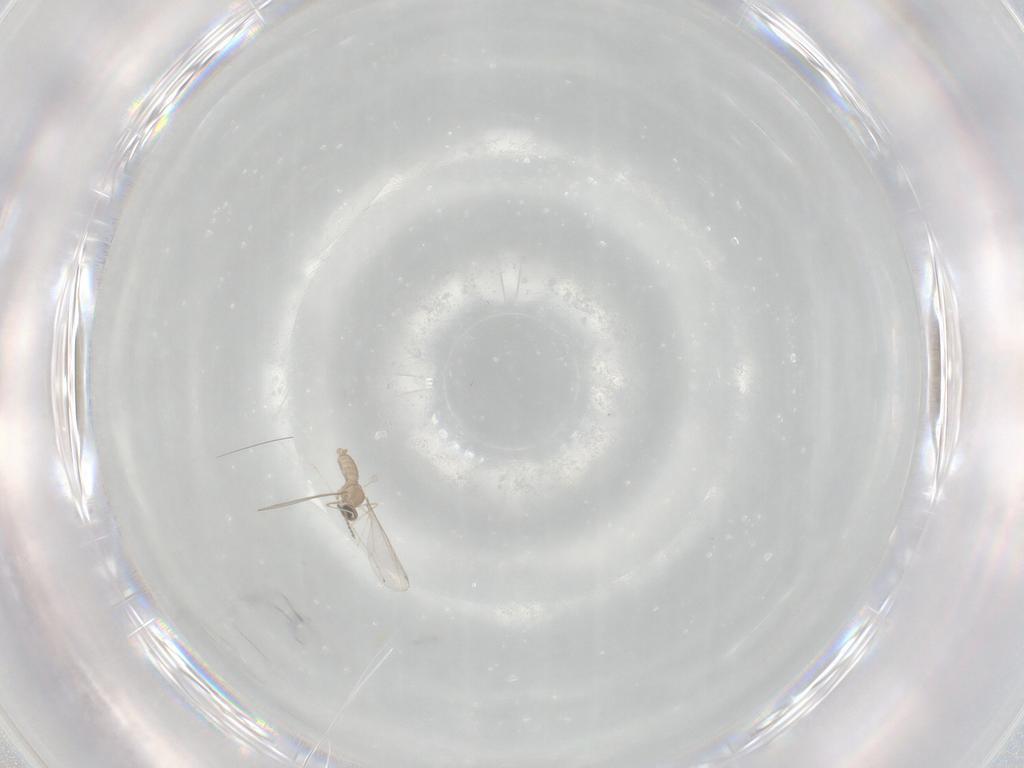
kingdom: Animalia
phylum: Arthropoda
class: Insecta
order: Diptera
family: Cecidomyiidae
